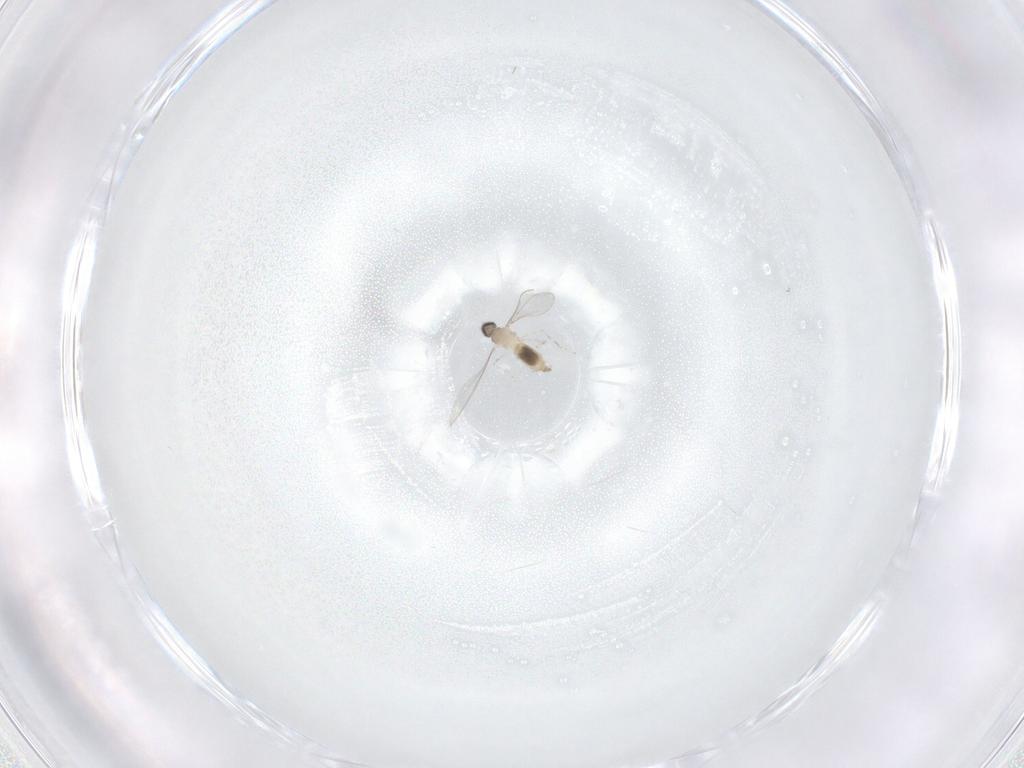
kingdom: Animalia
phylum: Arthropoda
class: Insecta
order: Diptera
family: Cecidomyiidae
